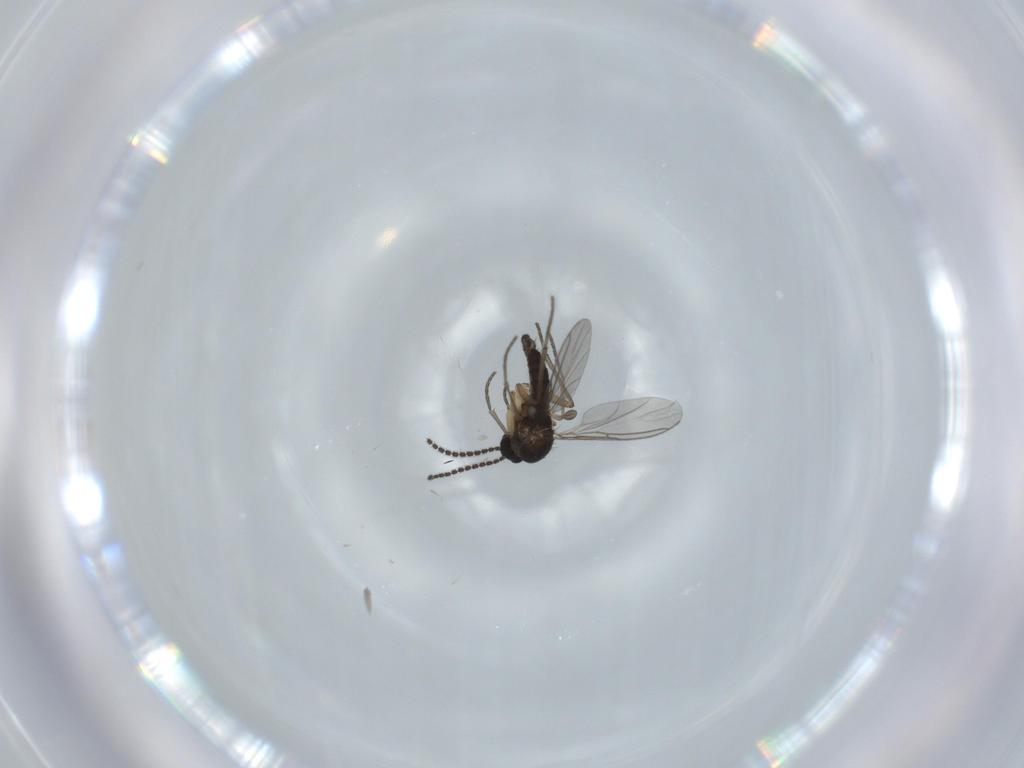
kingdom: Animalia
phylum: Arthropoda
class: Insecta
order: Diptera
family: Sciaridae
